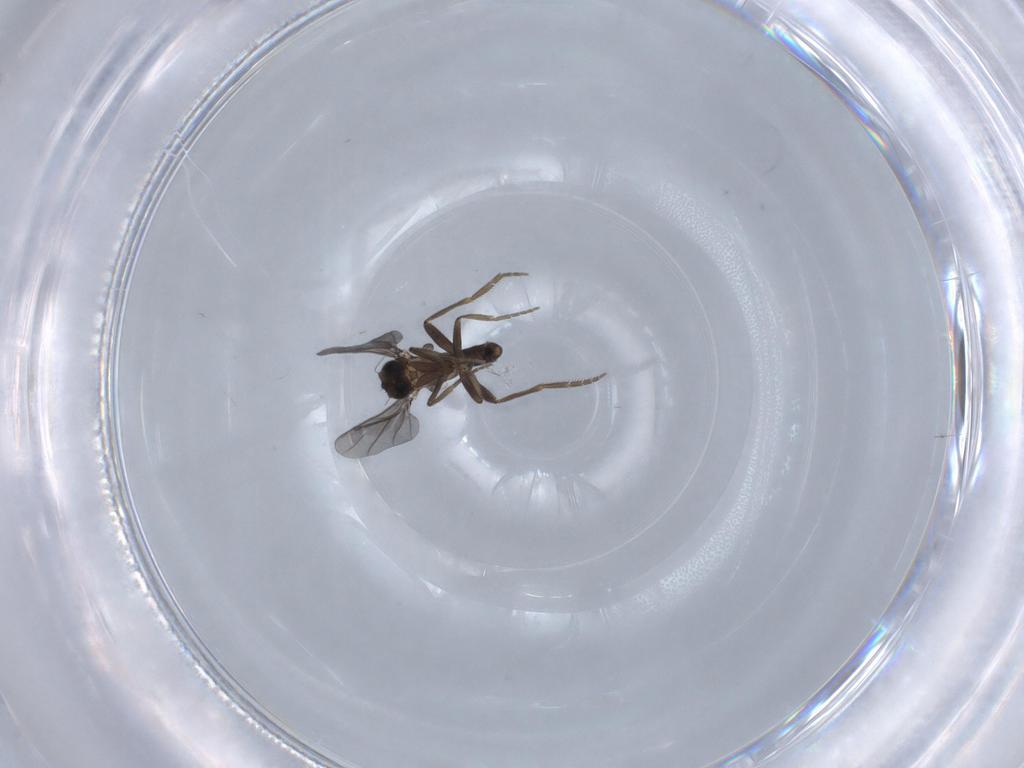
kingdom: Animalia
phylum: Arthropoda
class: Insecta
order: Diptera
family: Phoridae
